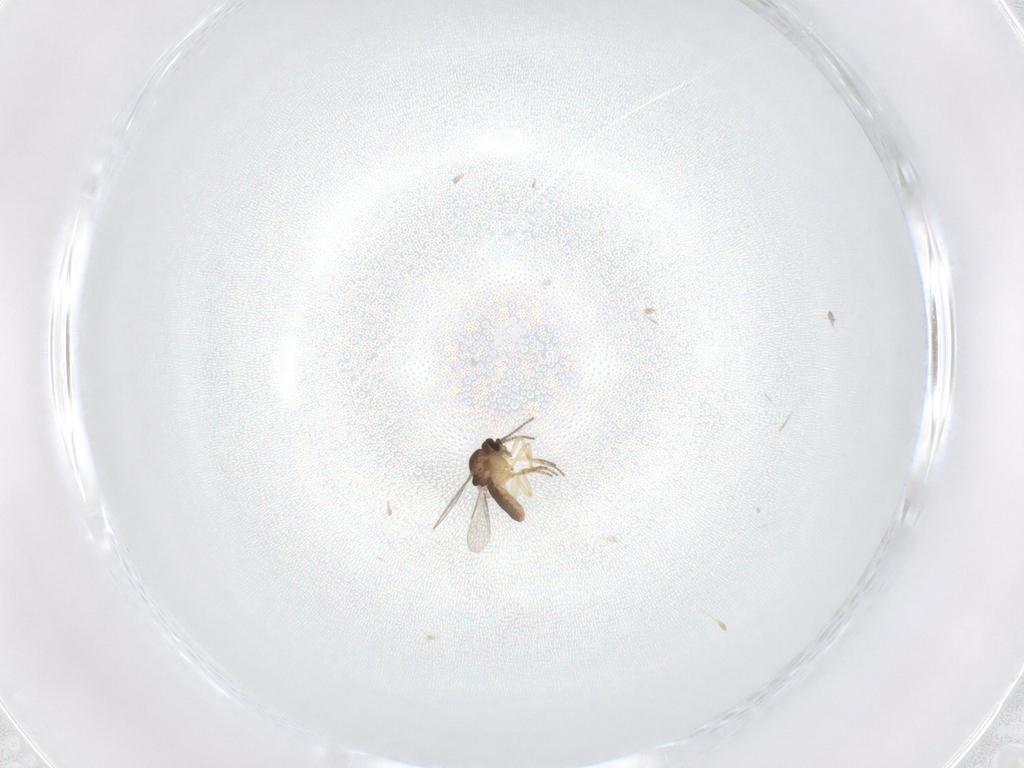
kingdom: Animalia
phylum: Arthropoda
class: Insecta
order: Diptera
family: Ceratopogonidae
